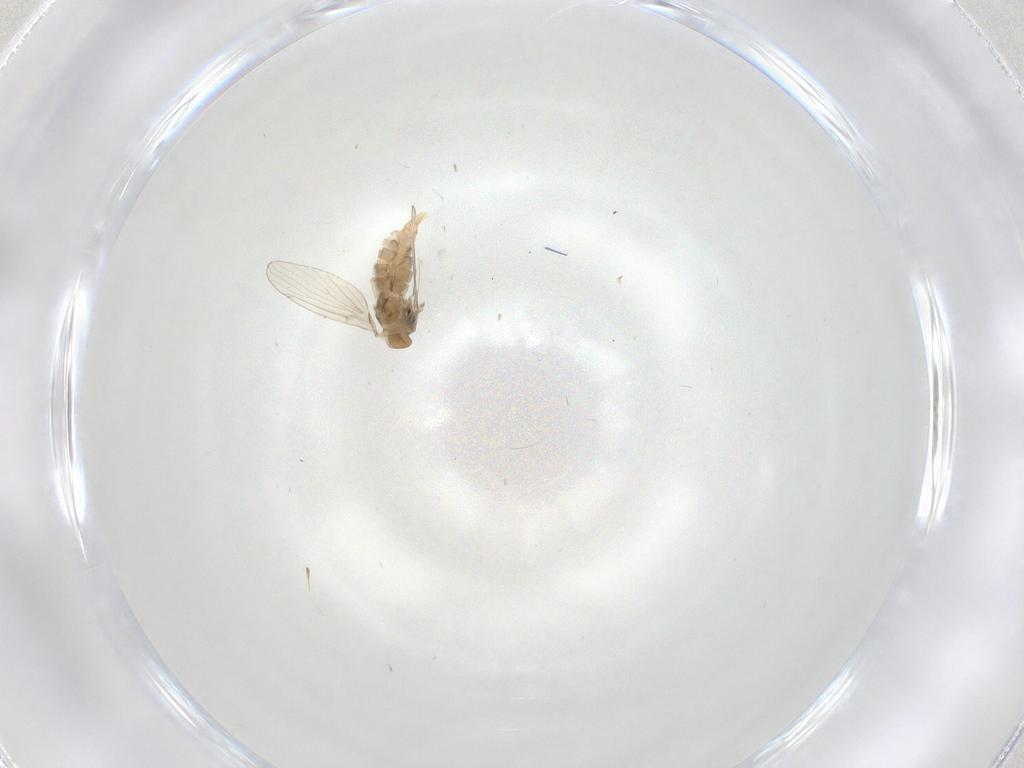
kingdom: Animalia
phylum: Arthropoda
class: Insecta
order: Diptera
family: Psychodidae
